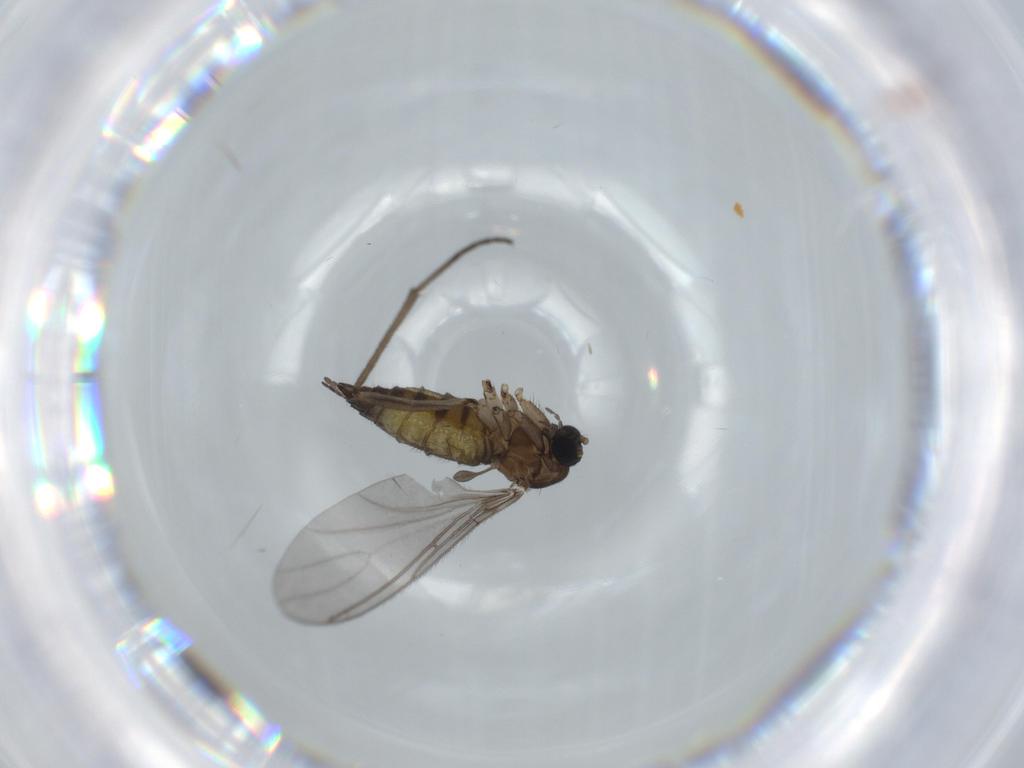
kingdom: Animalia
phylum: Arthropoda
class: Insecta
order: Diptera
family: Sciaridae
